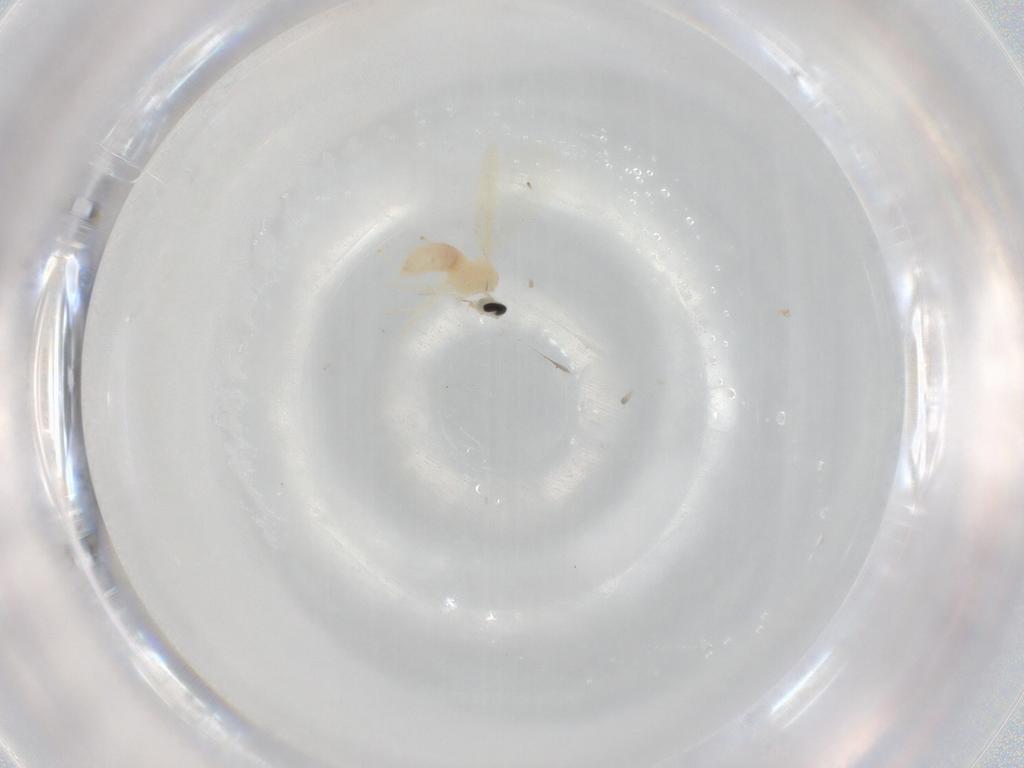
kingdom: Animalia
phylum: Arthropoda
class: Insecta
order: Diptera
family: Cecidomyiidae
